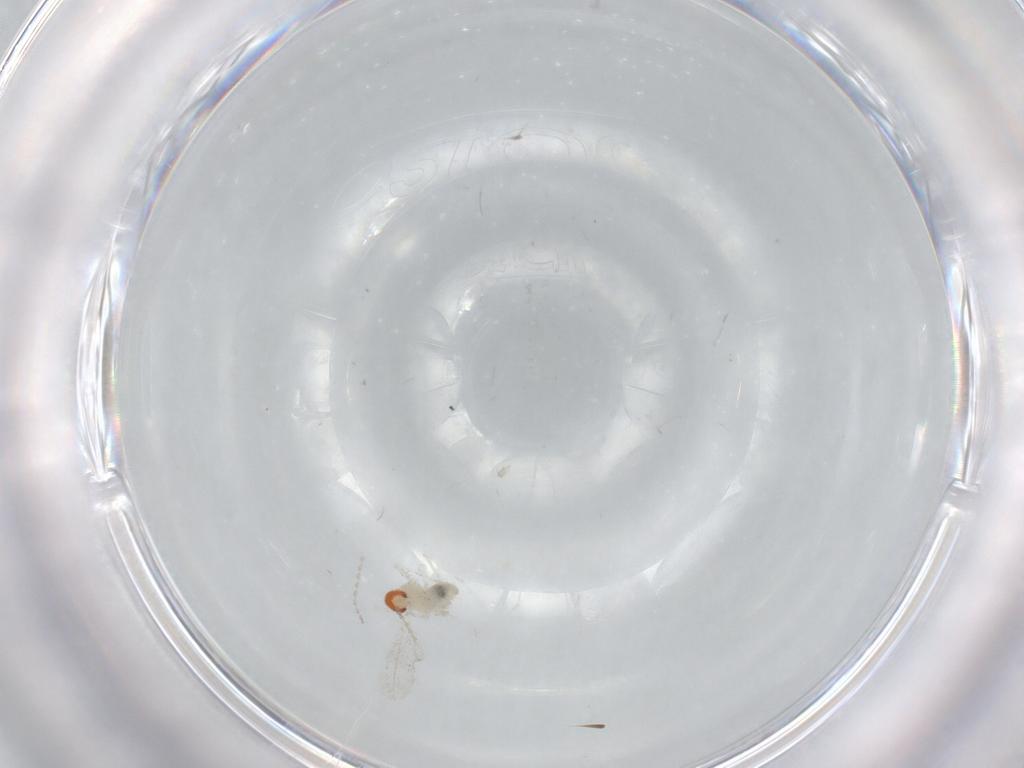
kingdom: Animalia
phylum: Arthropoda
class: Insecta
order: Diptera
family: Cecidomyiidae
